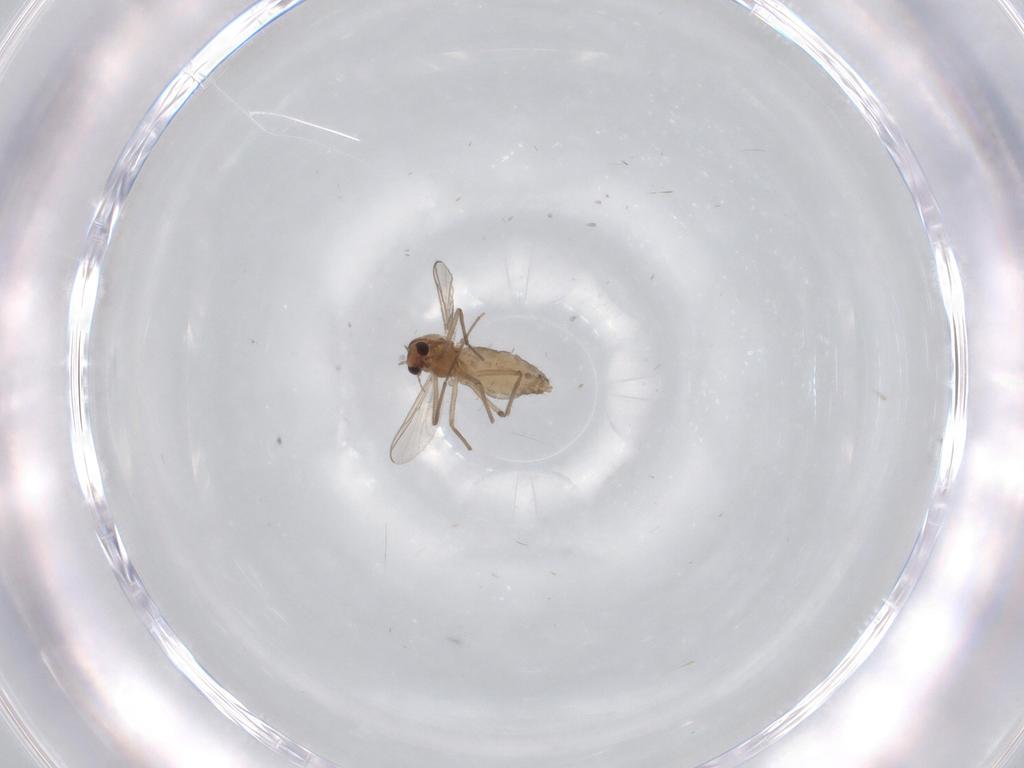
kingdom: Animalia
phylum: Arthropoda
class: Insecta
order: Diptera
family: Chironomidae
